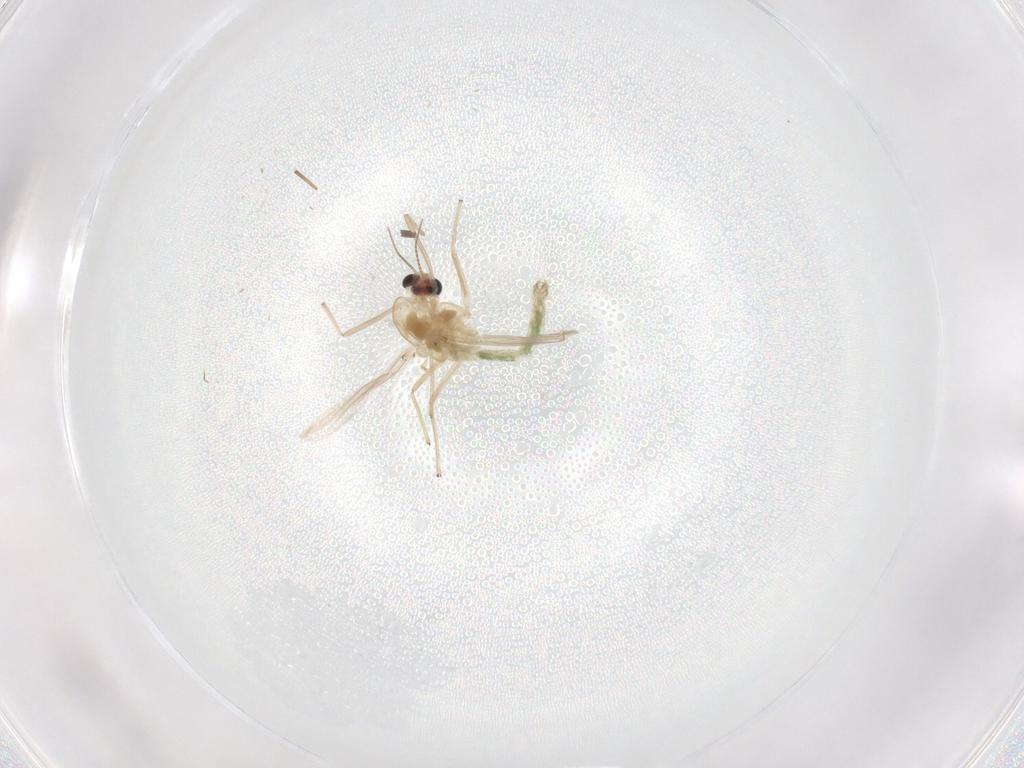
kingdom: Animalia
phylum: Arthropoda
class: Insecta
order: Diptera
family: Chironomidae
